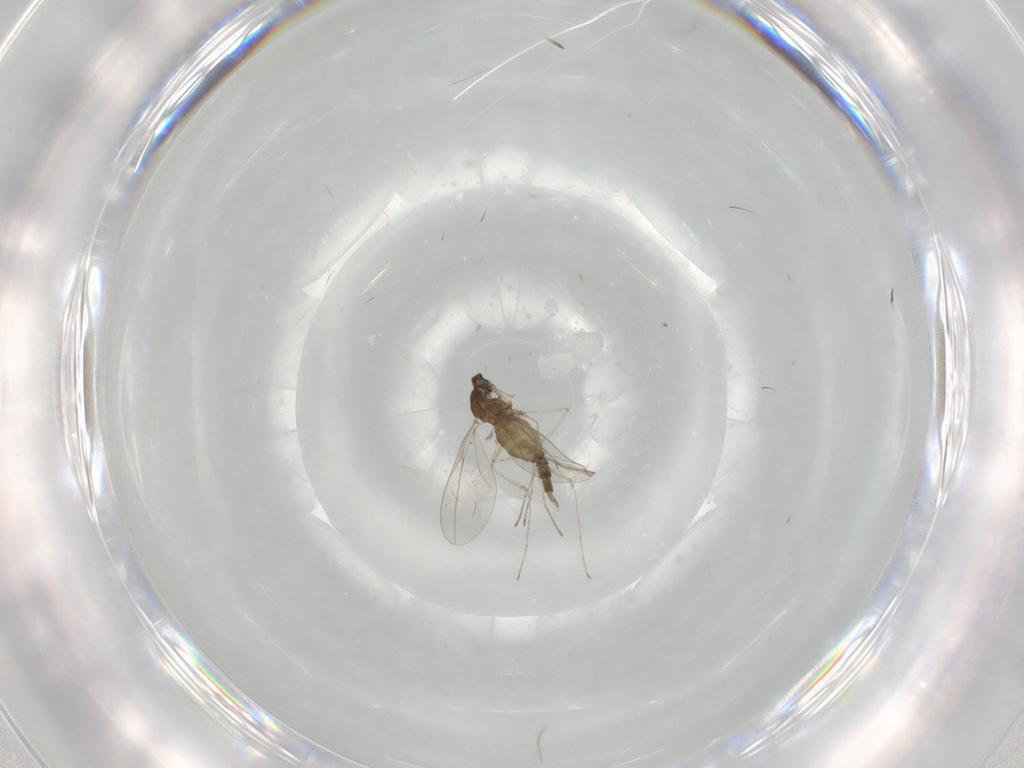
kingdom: Animalia
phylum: Arthropoda
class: Insecta
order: Diptera
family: Cecidomyiidae
